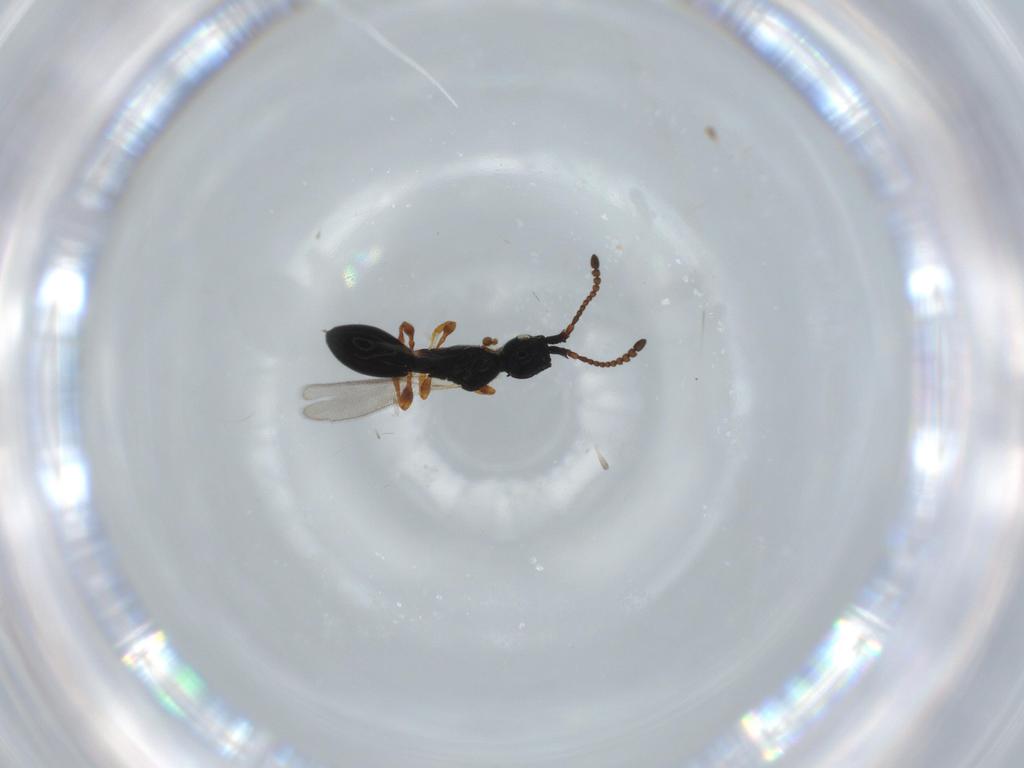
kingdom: Animalia
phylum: Arthropoda
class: Insecta
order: Hymenoptera
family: Diapriidae
